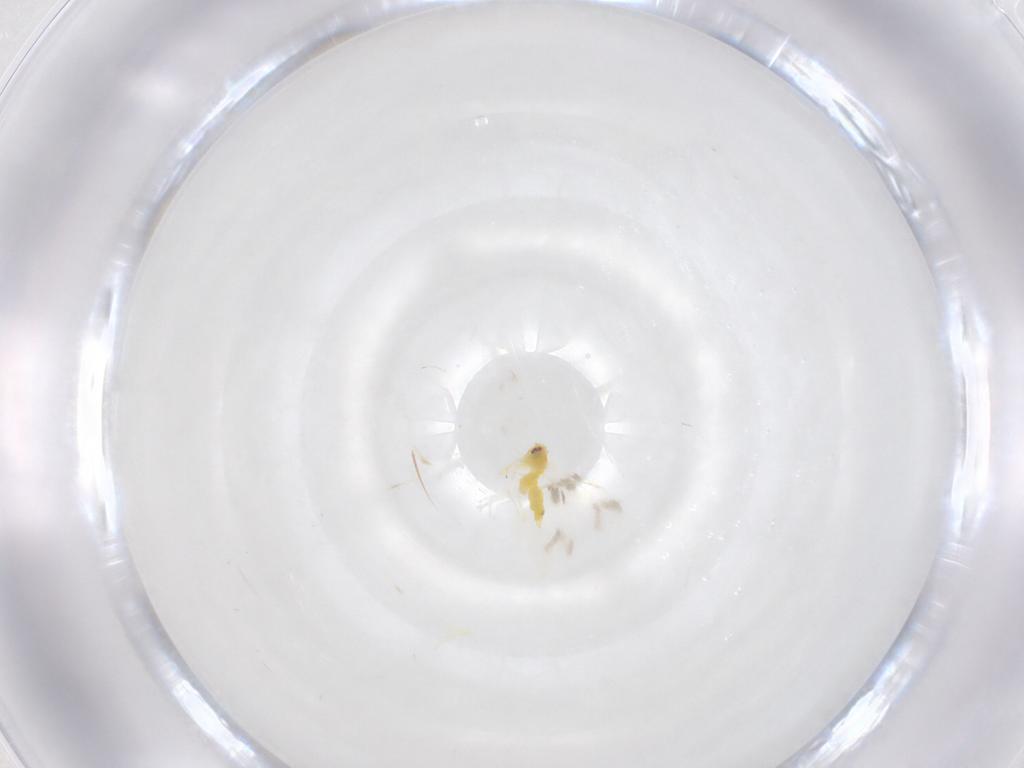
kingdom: Animalia
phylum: Arthropoda
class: Insecta
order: Hemiptera
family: Aleyrodidae
